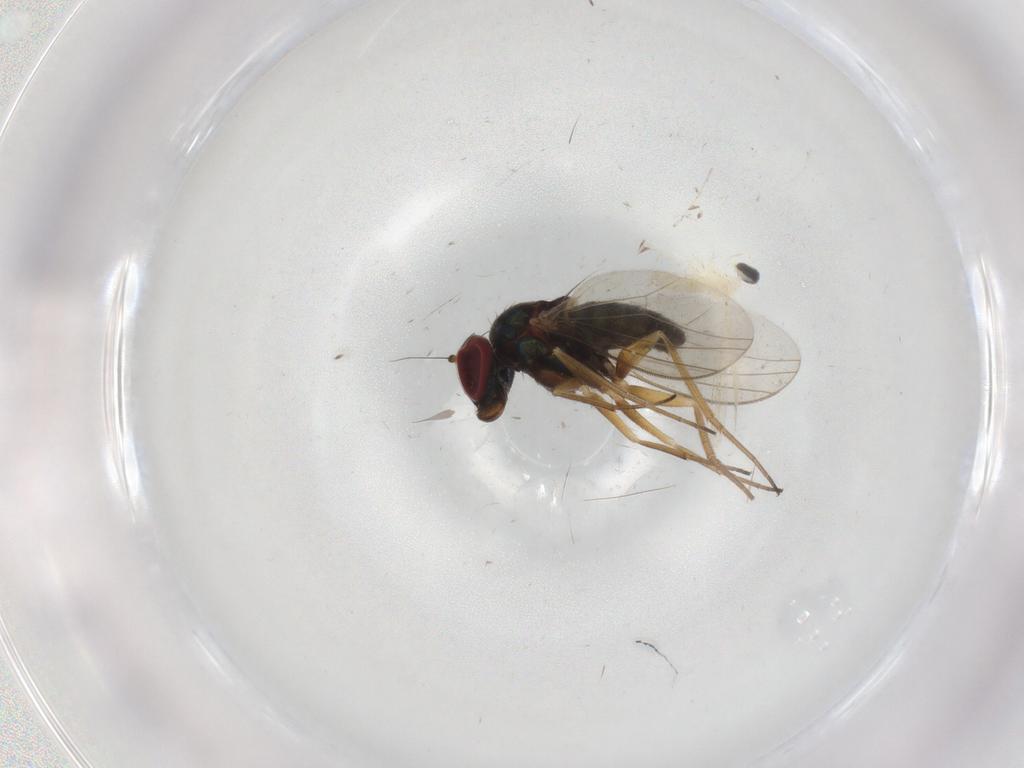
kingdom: Animalia
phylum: Arthropoda
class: Insecta
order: Diptera
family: Cecidomyiidae
